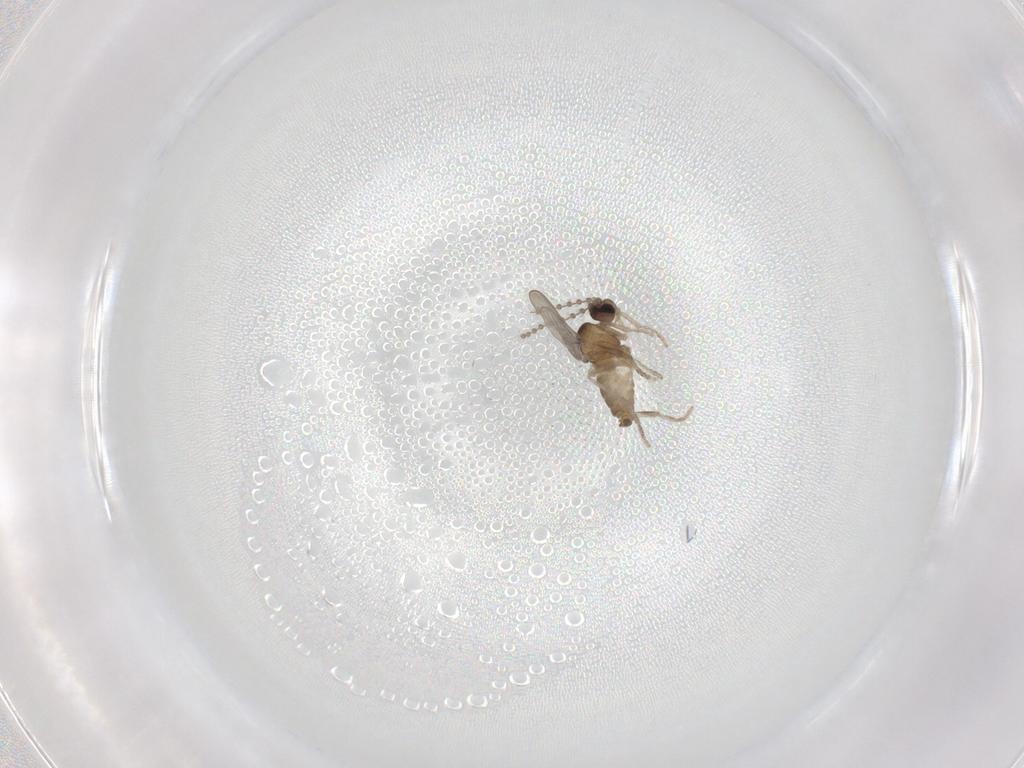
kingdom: Animalia
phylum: Arthropoda
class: Insecta
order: Diptera
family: Cecidomyiidae
